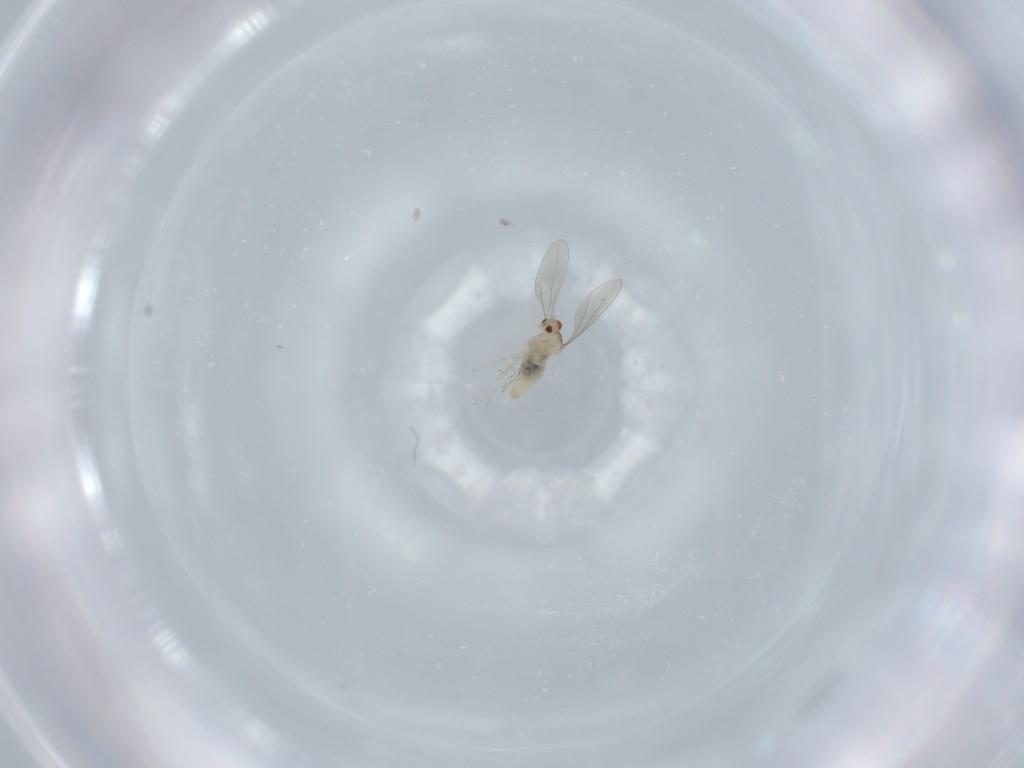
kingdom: Animalia
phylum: Arthropoda
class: Insecta
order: Diptera
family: Cecidomyiidae
